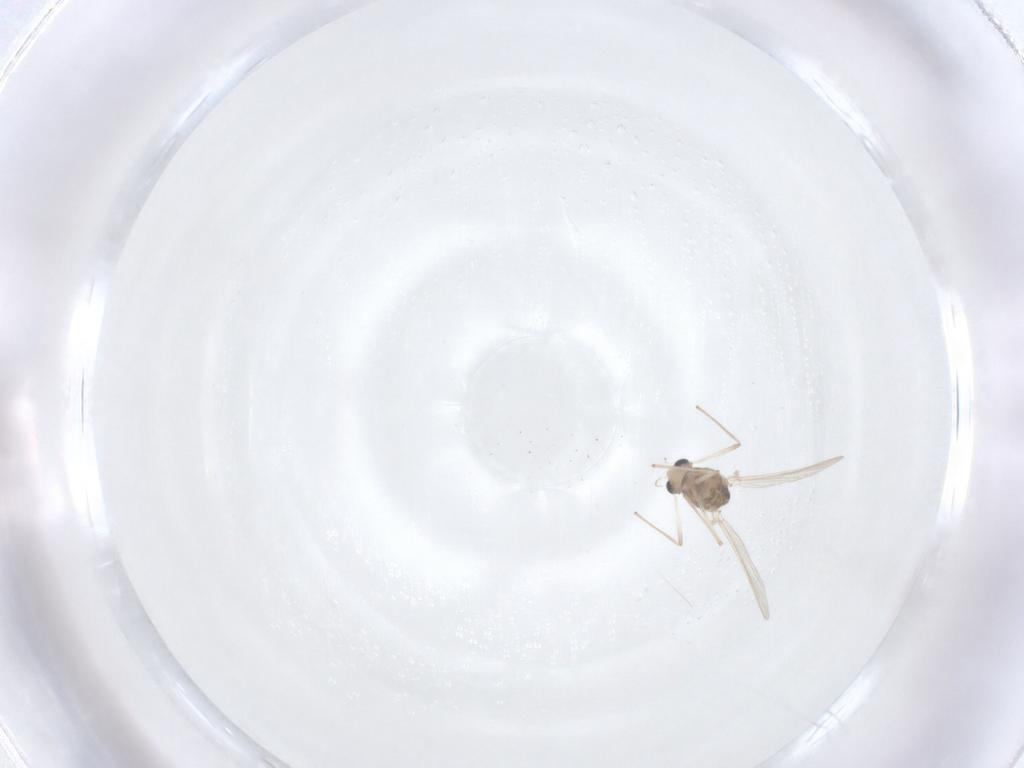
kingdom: Animalia
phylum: Arthropoda
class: Insecta
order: Diptera
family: Chironomidae
